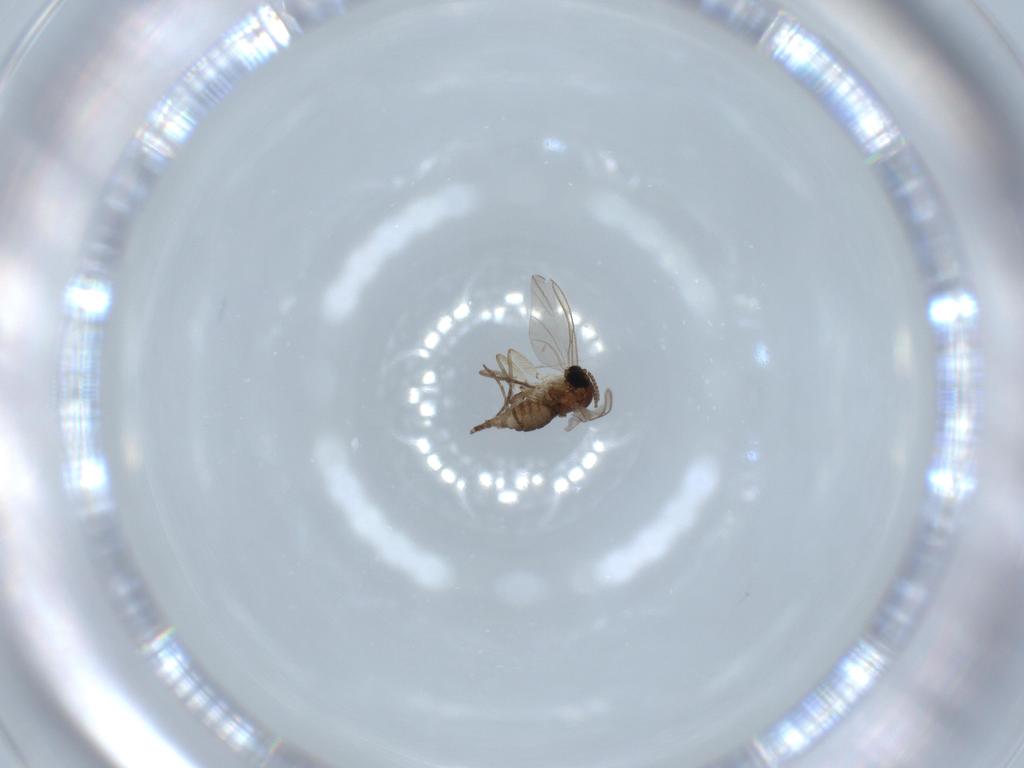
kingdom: Animalia
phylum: Arthropoda
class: Insecta
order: Diptera
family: Sciaridae
